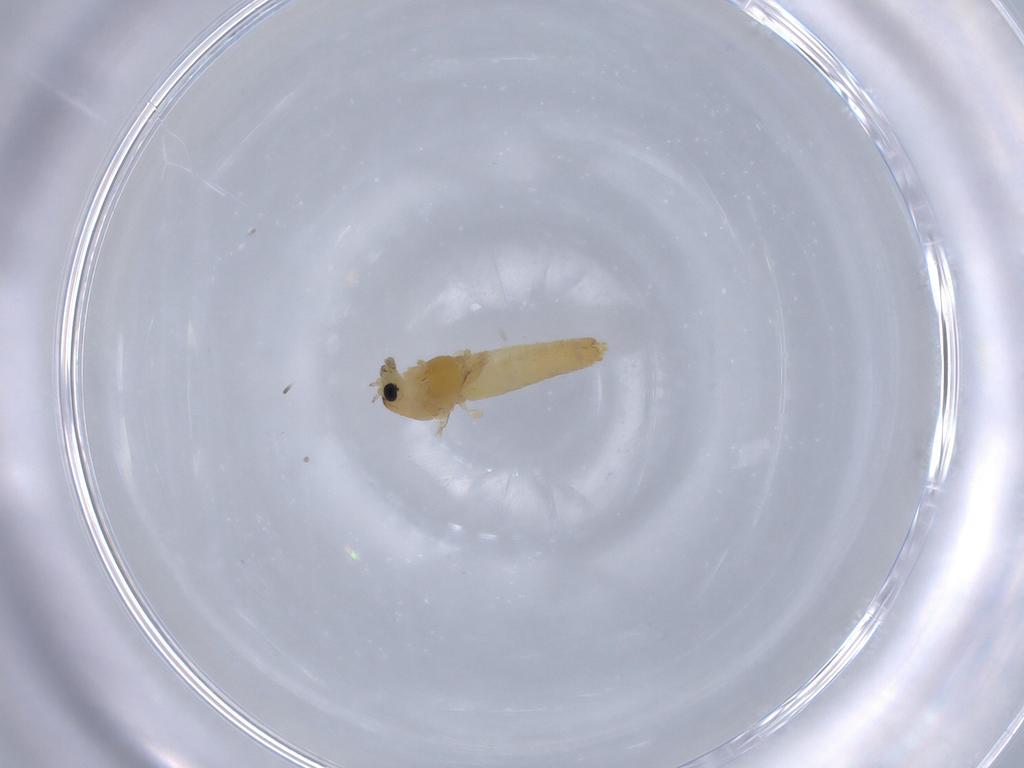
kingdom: Animalia
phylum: Arthropoda
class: Insecta
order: Diptera
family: Chironomidae
